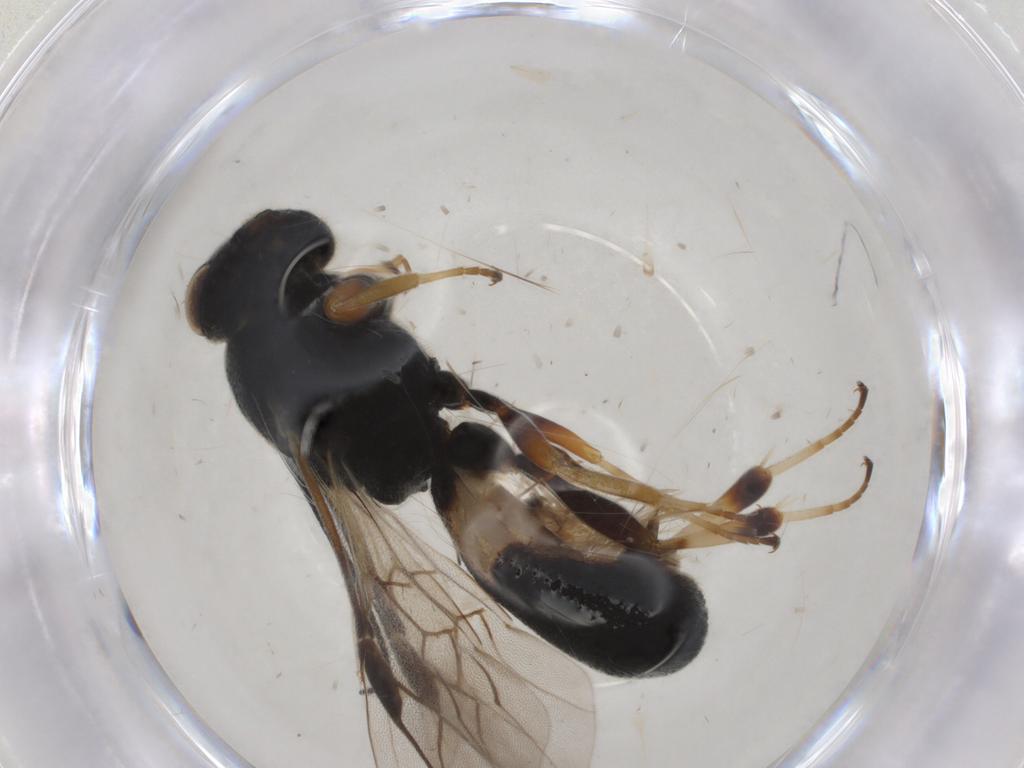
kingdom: Animalia
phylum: Arthropoda
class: Insecta
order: Hymenoptera
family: Braconidae
